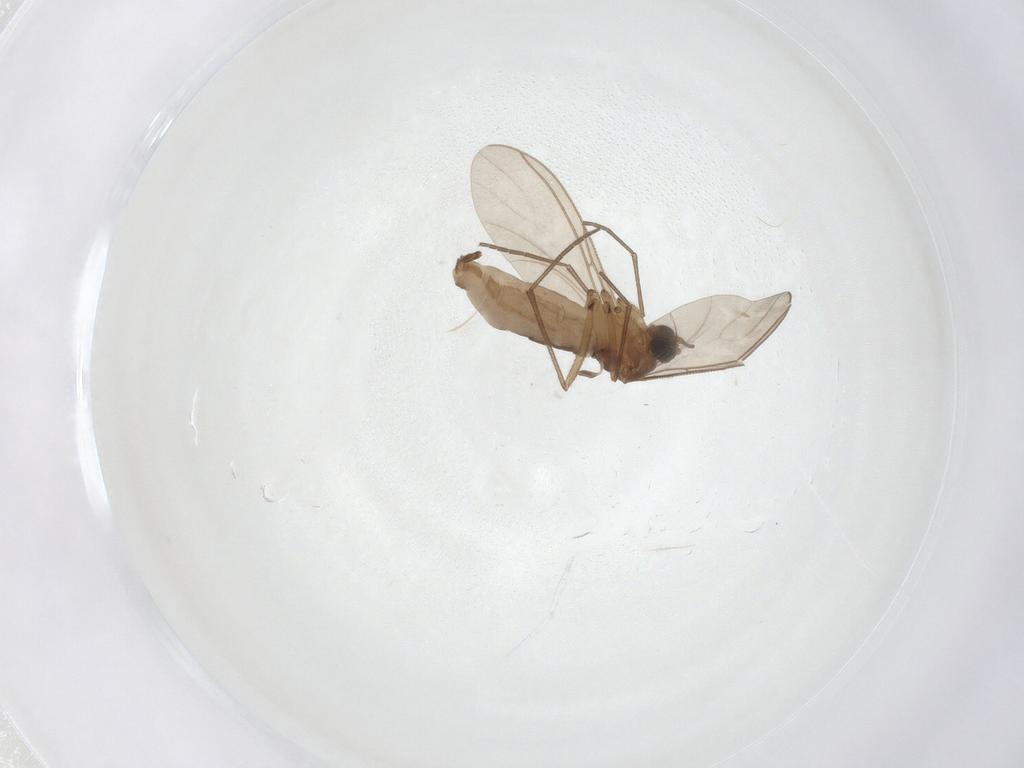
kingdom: Animalia
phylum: Arthropoda
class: Insecta
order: Diptera
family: Sciaridae
